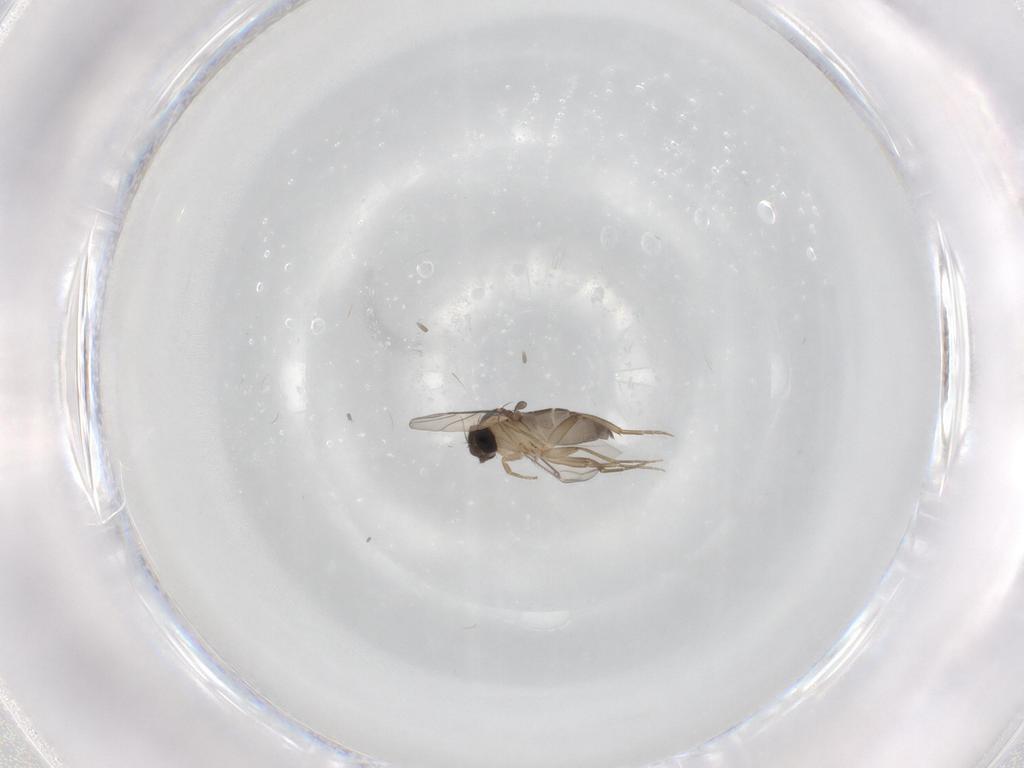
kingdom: Animalia
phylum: Arthropoda
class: Insecta
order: Diptera
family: Phoridae
